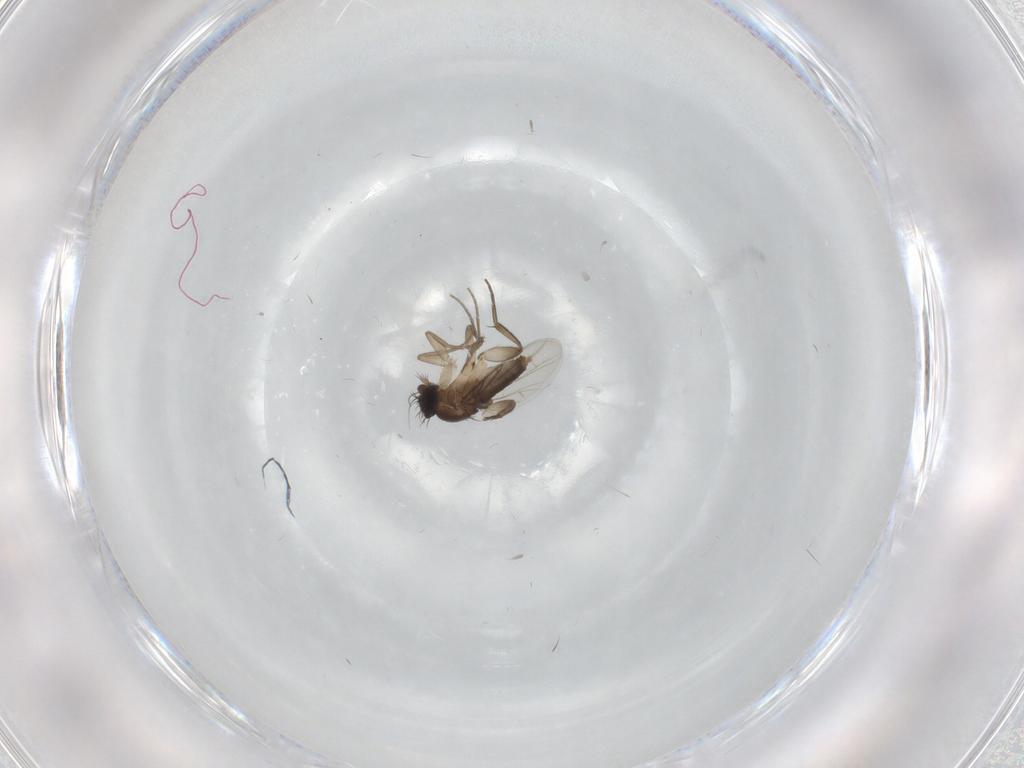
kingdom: Animalia
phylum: Arthropoda
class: Insecta
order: Diptera
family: Phoridae
